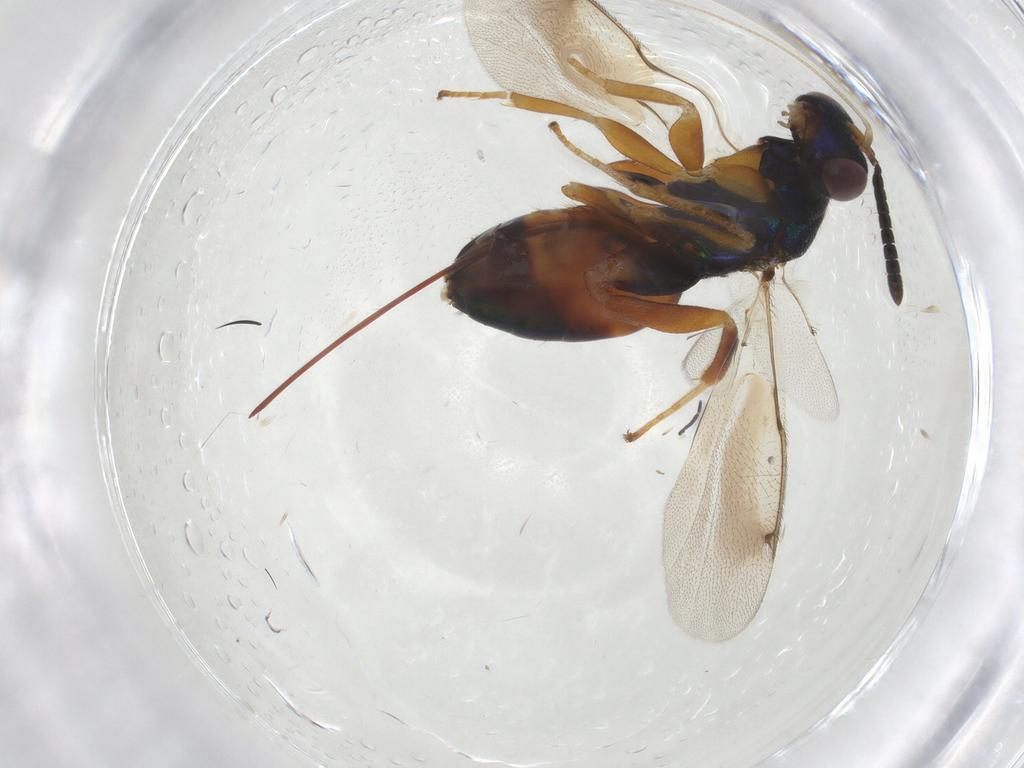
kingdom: Animalia
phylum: Arthropoda
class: Insecta
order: Hymenoptera
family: Torymidae
